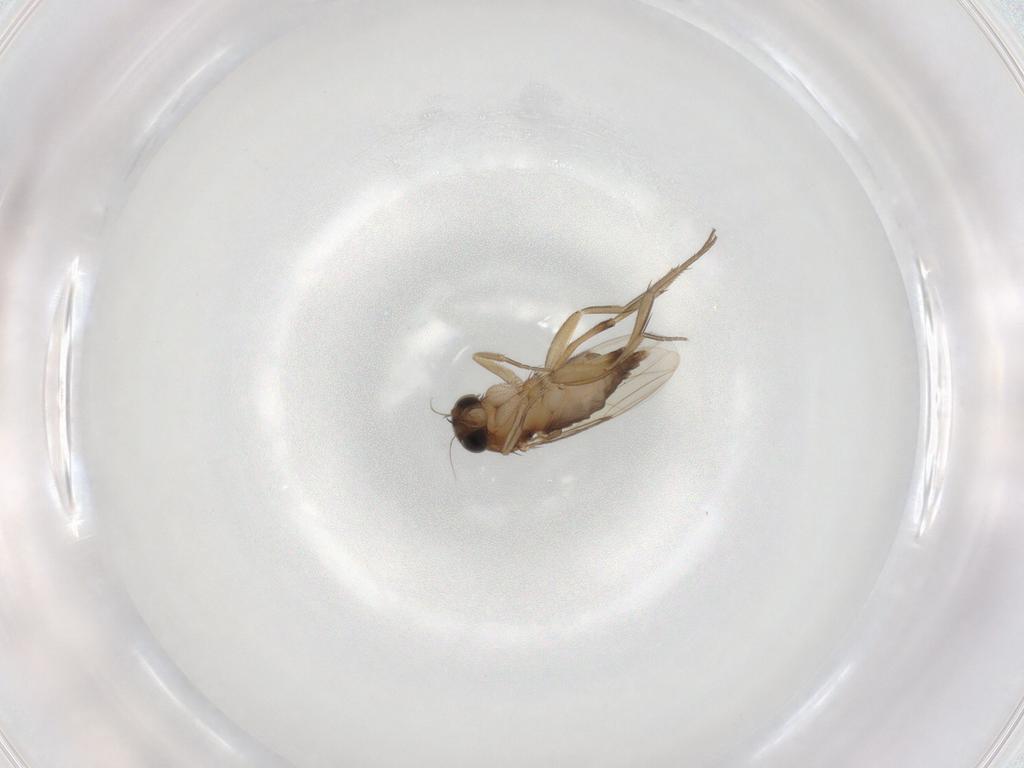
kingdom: Animalia
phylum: Arthropoda
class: Insecta
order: Diptera
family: Phoridae
